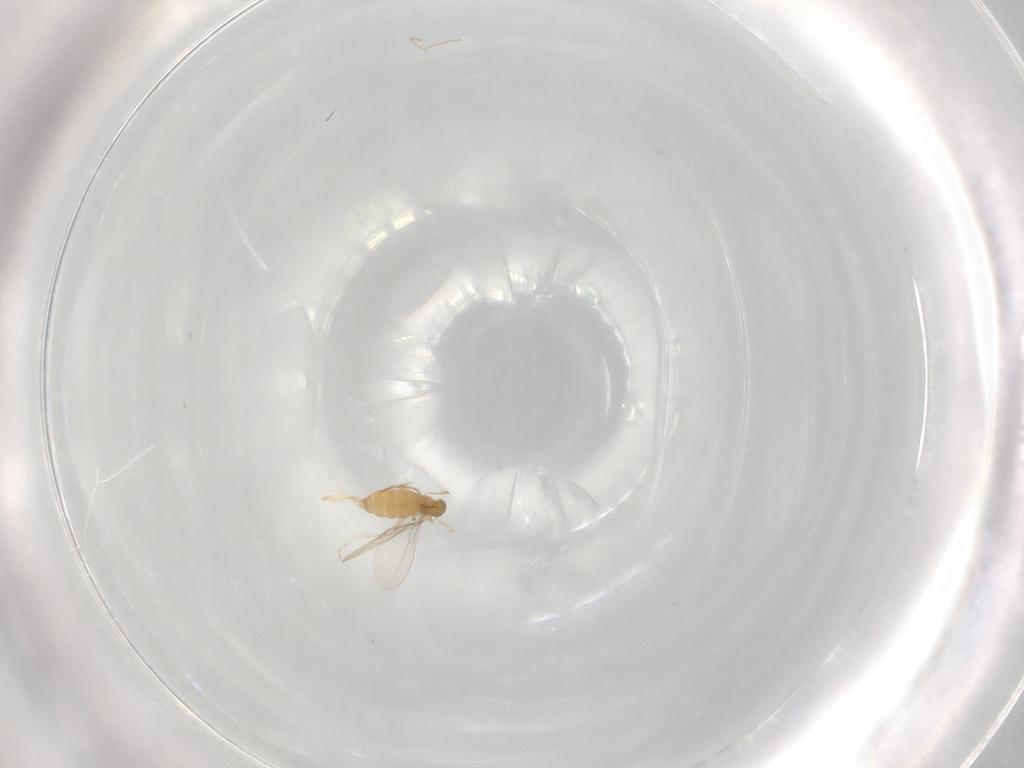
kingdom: Animalia
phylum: Arthropoda
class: Insecta
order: Diptera
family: Cecidomyiidae
